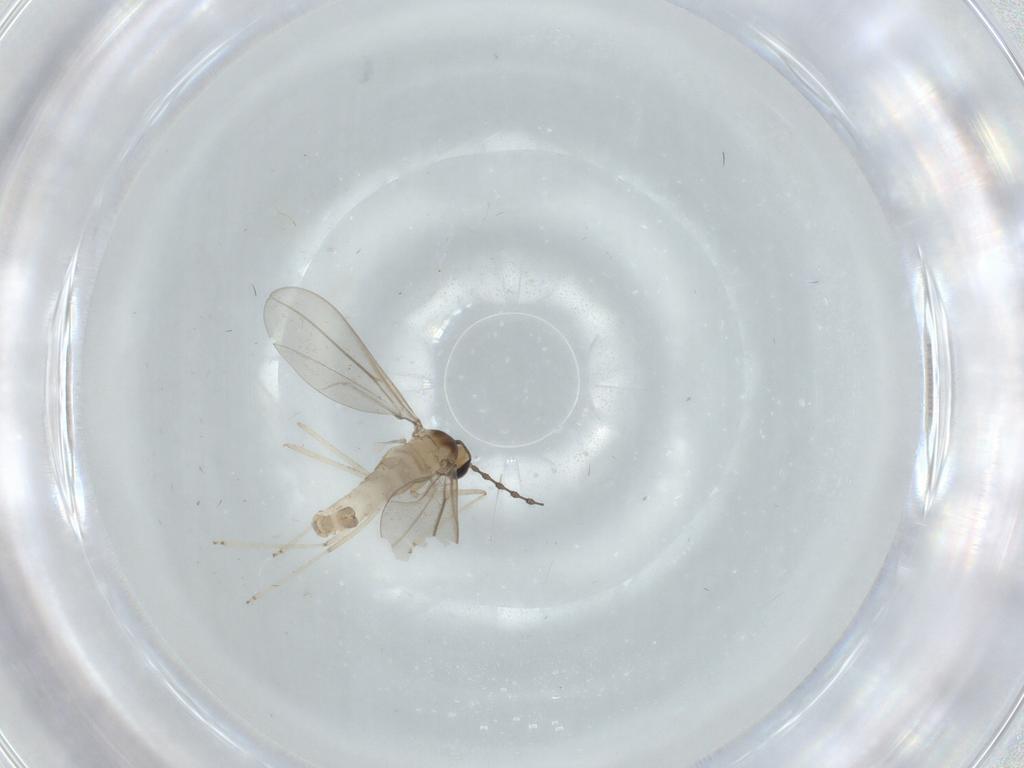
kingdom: Animalia
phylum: Arthropoda
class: Insecta
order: Diptera
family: Cecidomyiidae
